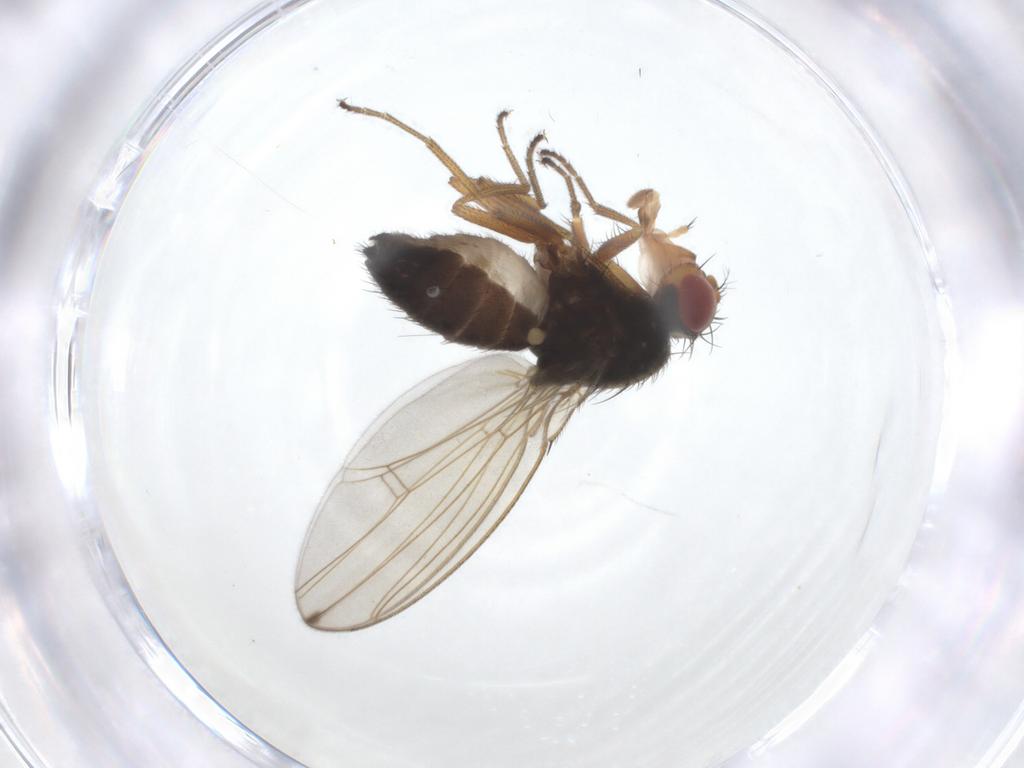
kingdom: Animalia
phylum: Arthropoda
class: Insecta
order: Diptera
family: Drosophilidae
